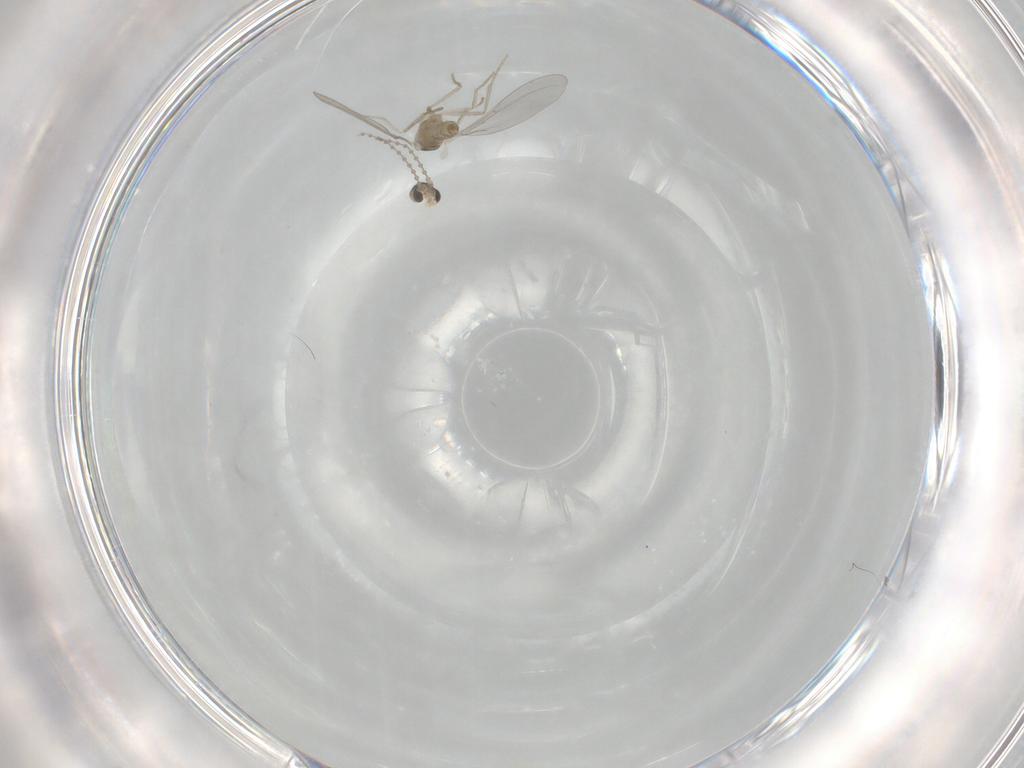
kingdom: Animalia
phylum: Arthropoda
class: Insecta
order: Diptera
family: Cecidomyiidae
